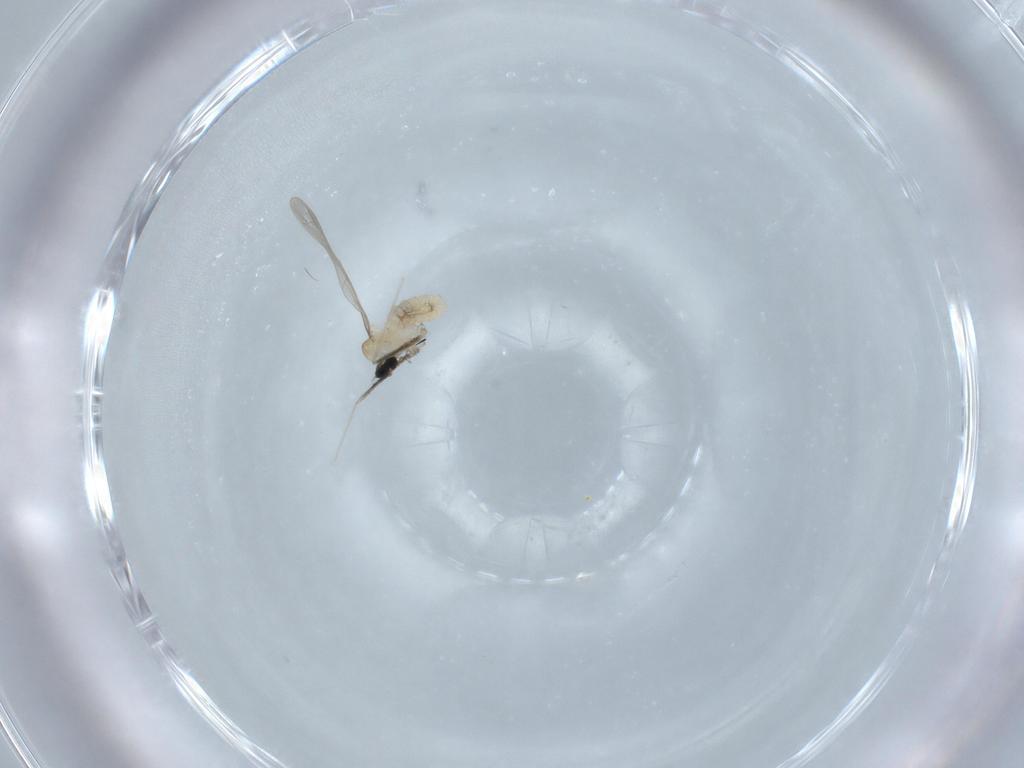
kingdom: Animalia
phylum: Arthropoda
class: Insecta
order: Diptera
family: Cecidomyiidae
